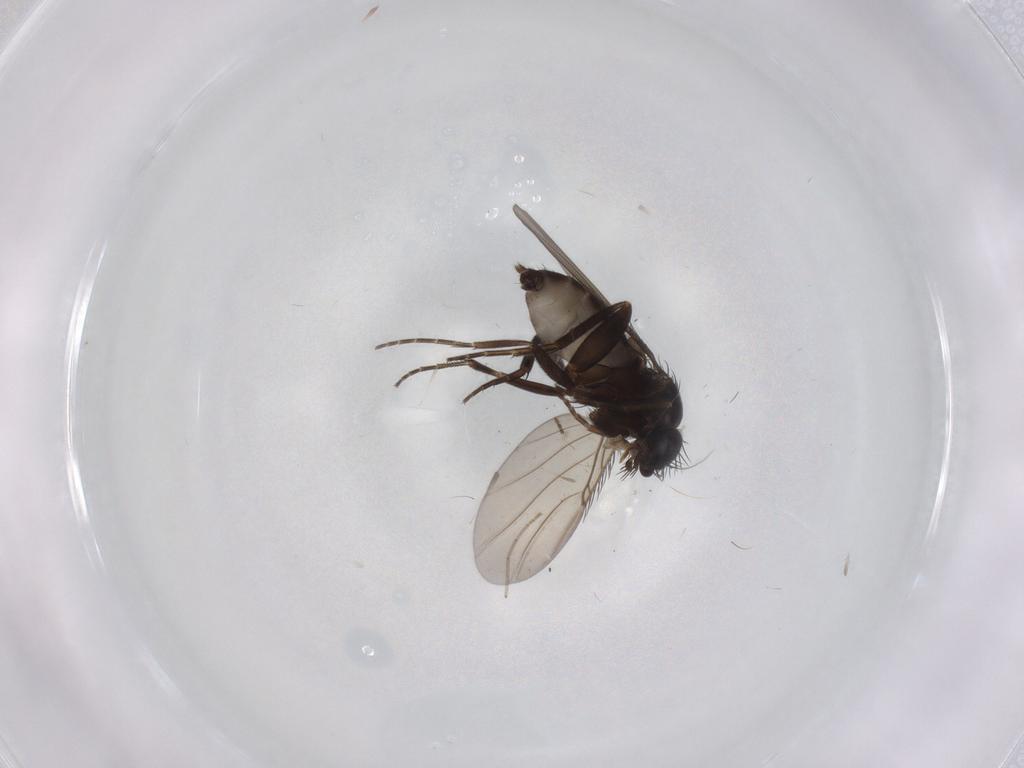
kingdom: Animalia
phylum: Arthropoda
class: Insecta
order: Diptera
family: Phoridae
